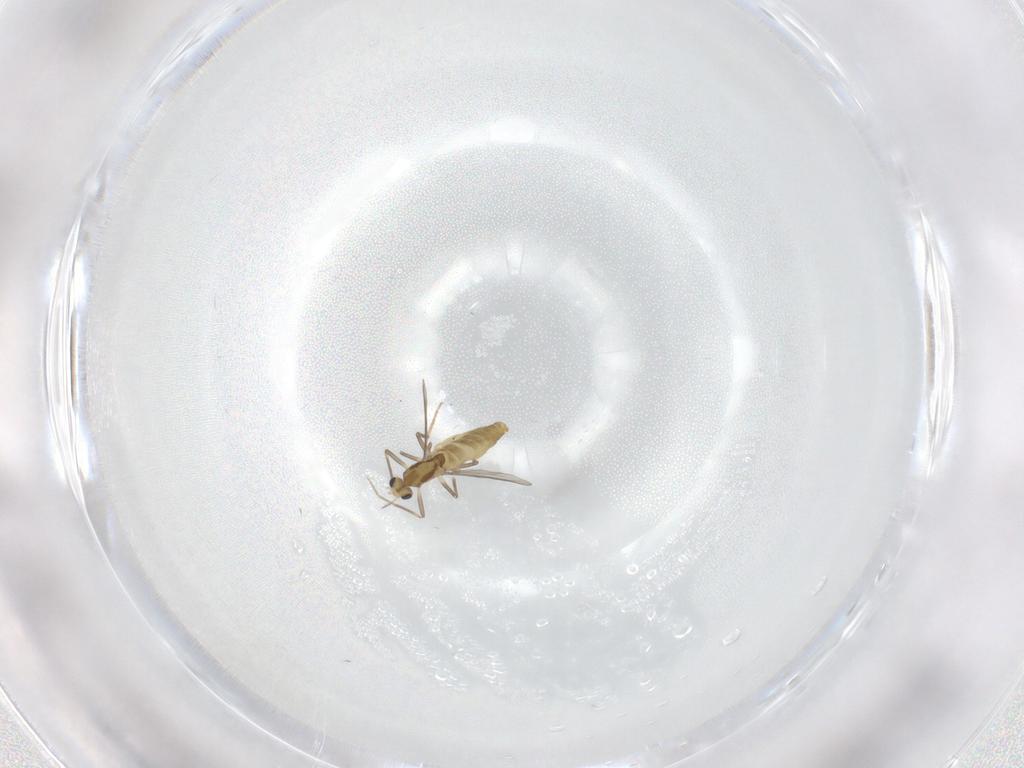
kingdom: Animalia
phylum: Arthropoda
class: Insecta
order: Diptera
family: Chironomidae
